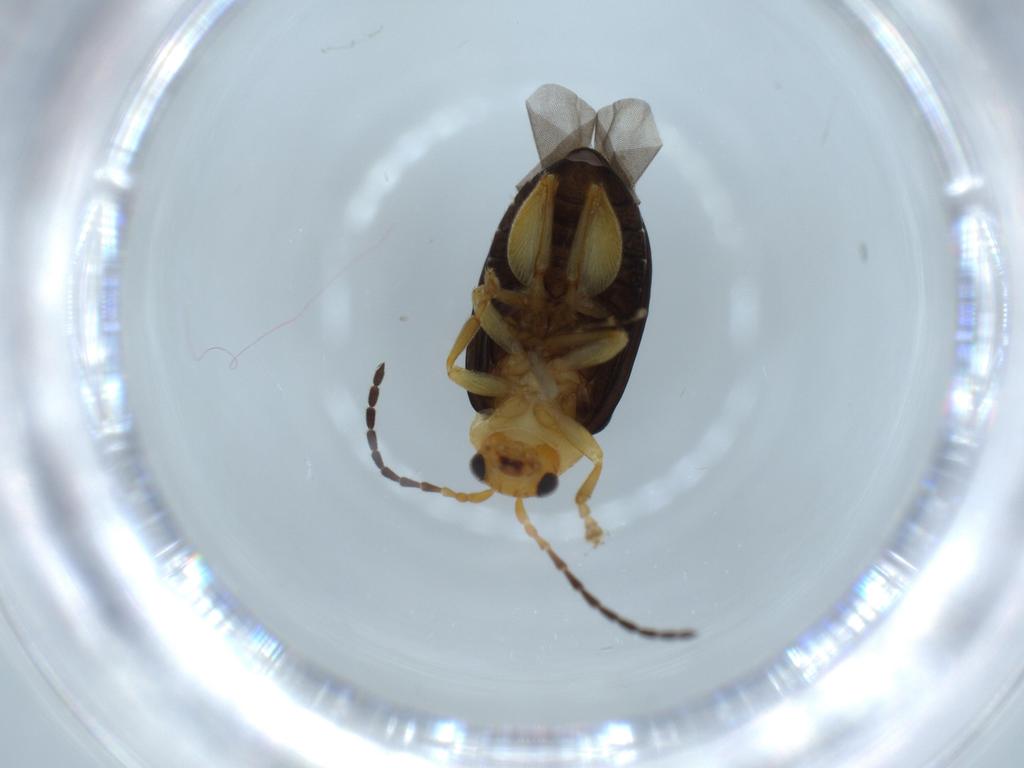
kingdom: Animalia
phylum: Arthropoda
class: Insecta
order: Coleoptera
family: Chrysomelidae
